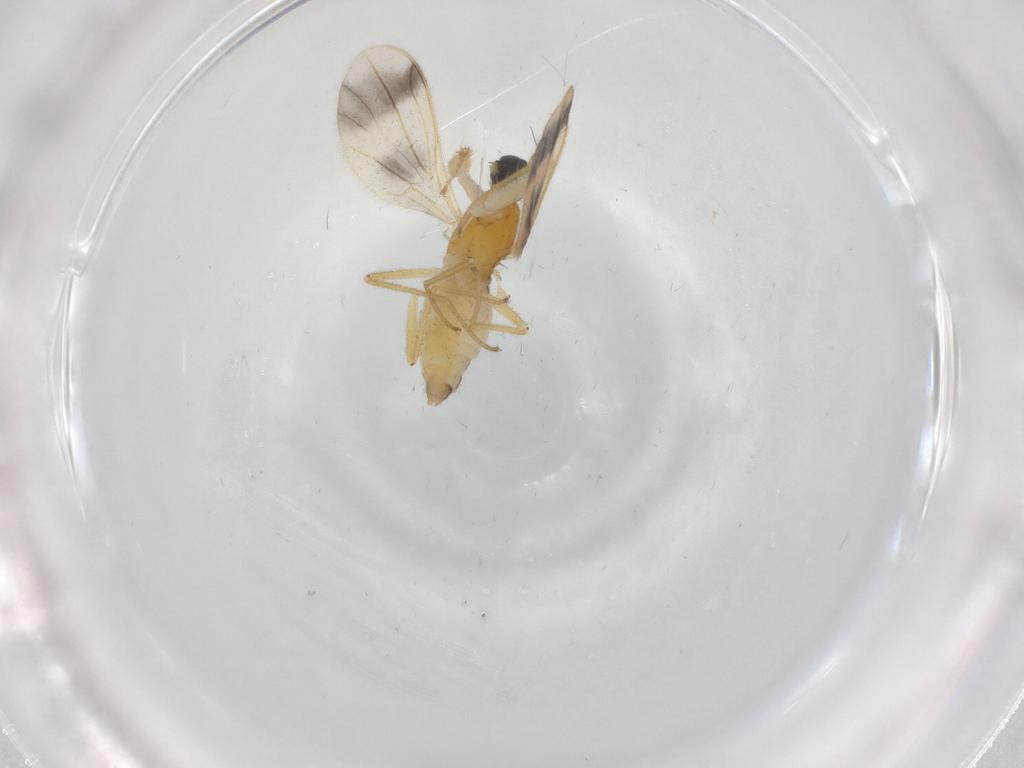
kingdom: Animalia
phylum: Arthropoda
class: Insecta
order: Diptera
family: Empididae
